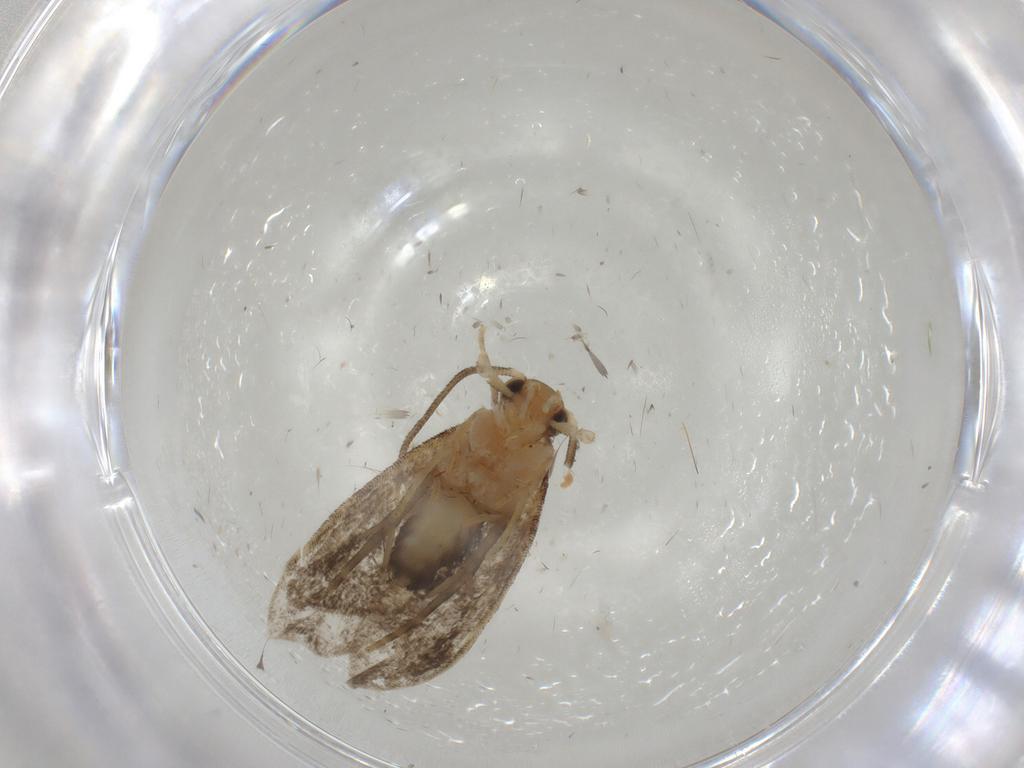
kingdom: Animalia
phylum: Arthropoda
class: Insecta
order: Lepidoptera
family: Dryadaulidae
